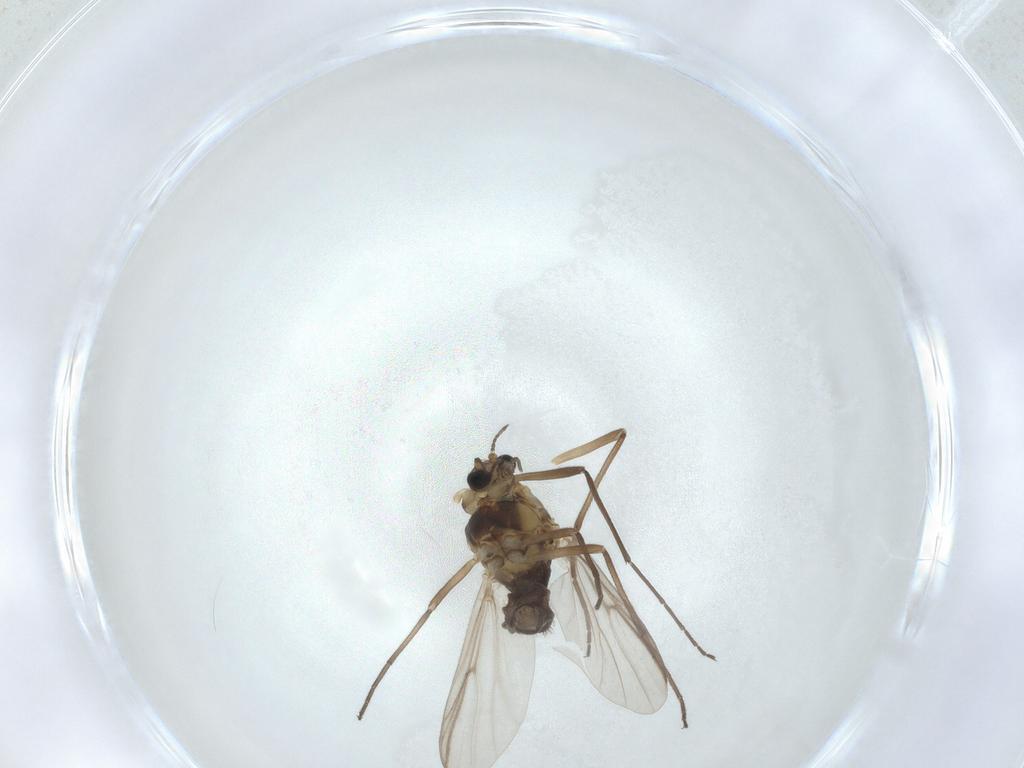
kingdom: Animalia
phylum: Arthropoda
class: Insecta
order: Diptera
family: Chironomidae
